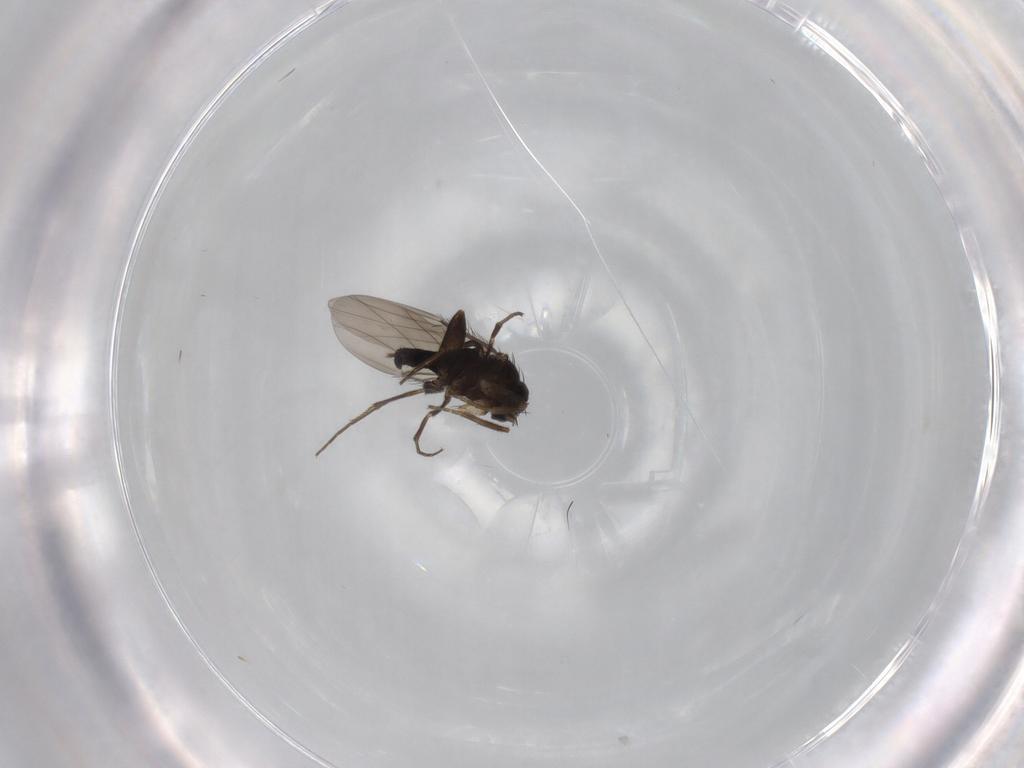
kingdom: Animalia
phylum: Arthropoda
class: Insecta
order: Diptera
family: Phoridae
